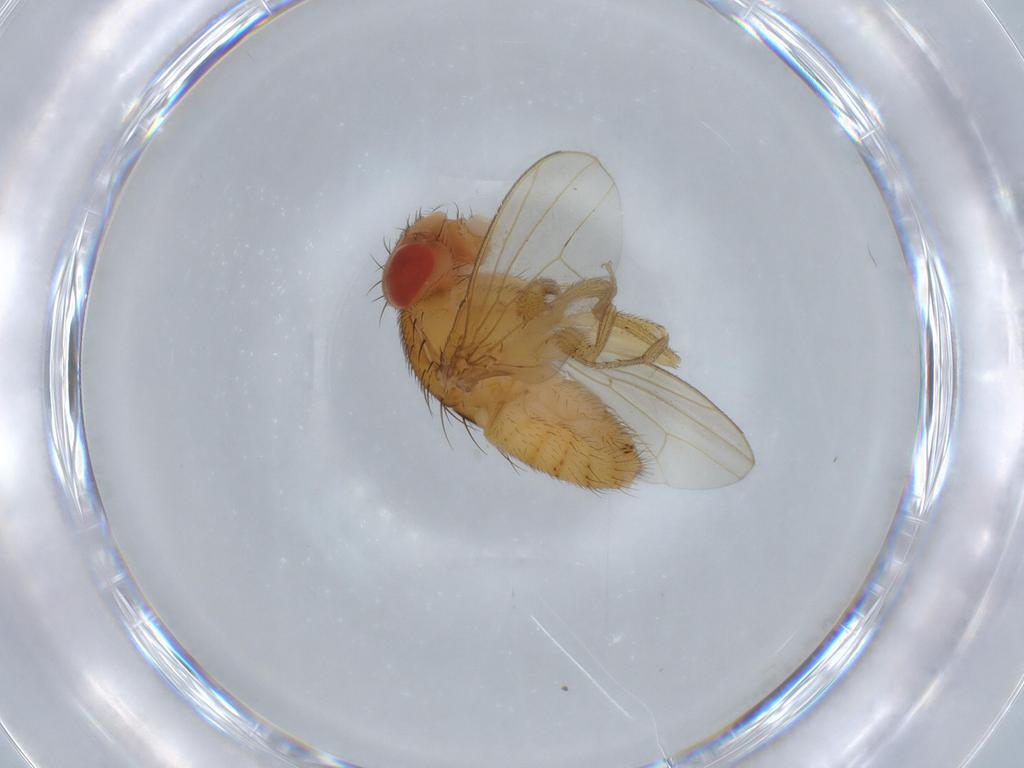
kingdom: Animalia
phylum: Arthropoda
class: Insecta
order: Diptera
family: Drosophilidae
